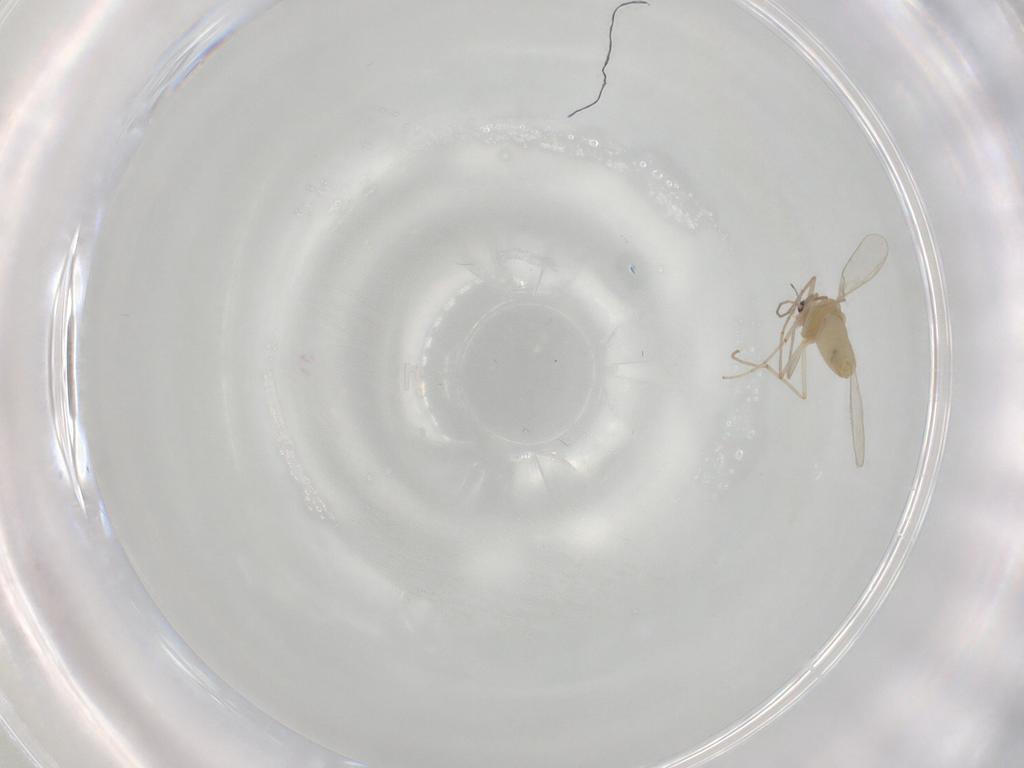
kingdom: Animalia
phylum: Arthropoda
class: Insecta
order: Diptera
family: Chironomidae
